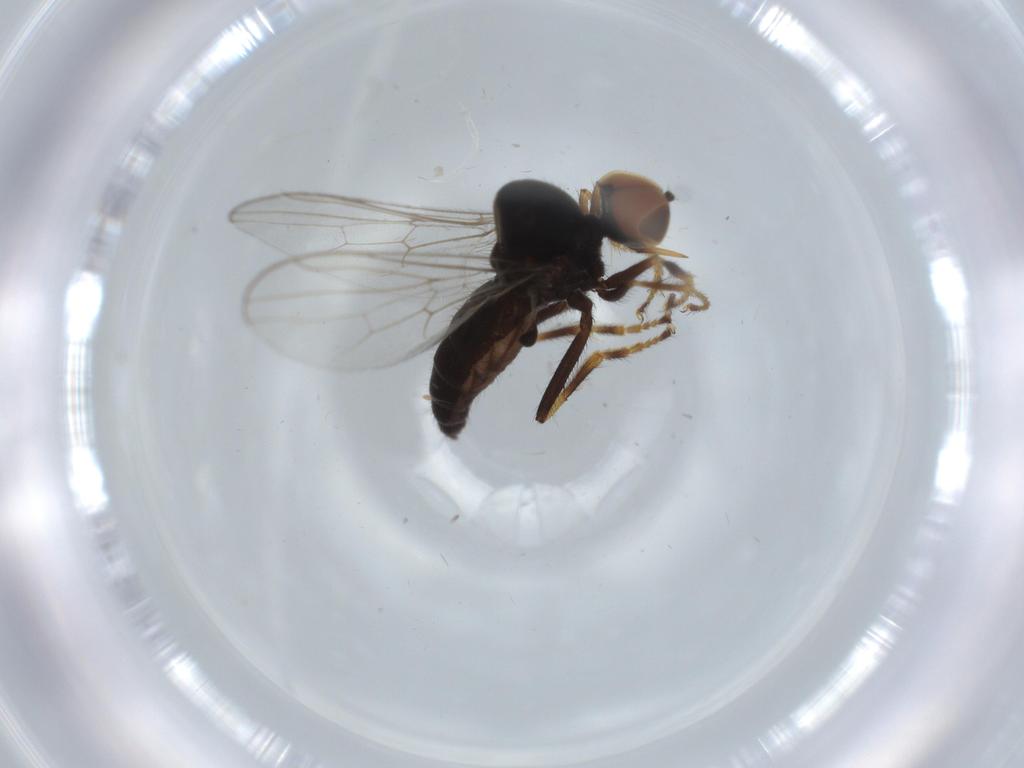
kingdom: Animalia
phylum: Arthropoda
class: Insecta
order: Diptera
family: Hybotidae
